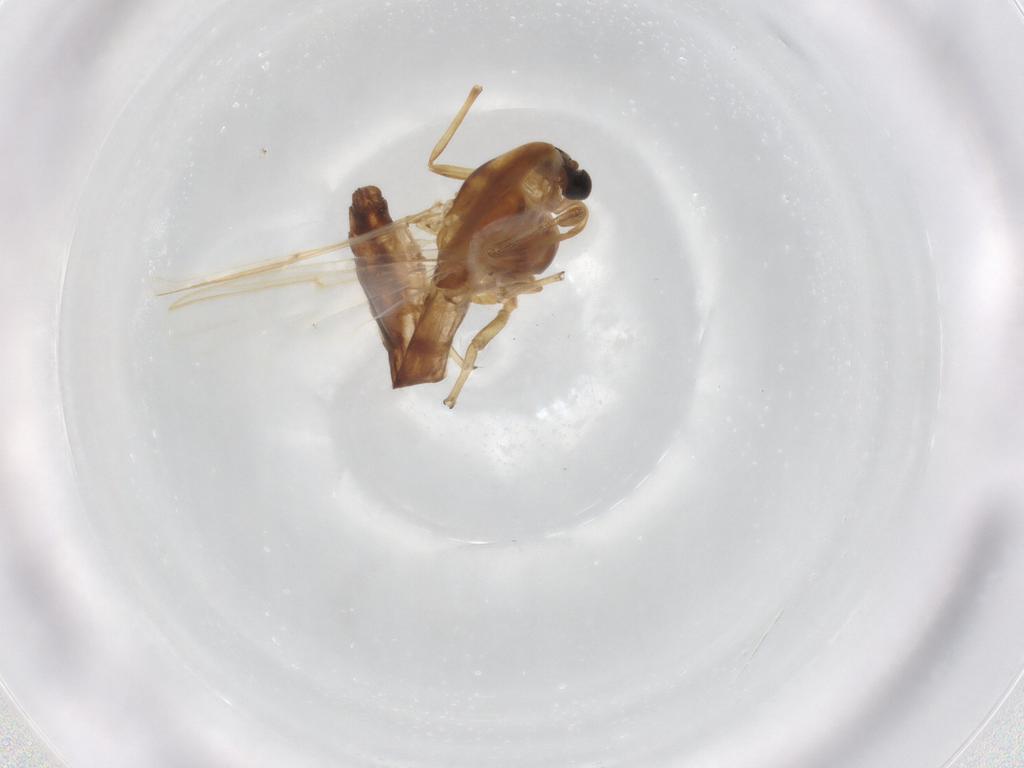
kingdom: Animalia
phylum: Arthropoda
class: Insecta
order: Diptera
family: Chironomidae
